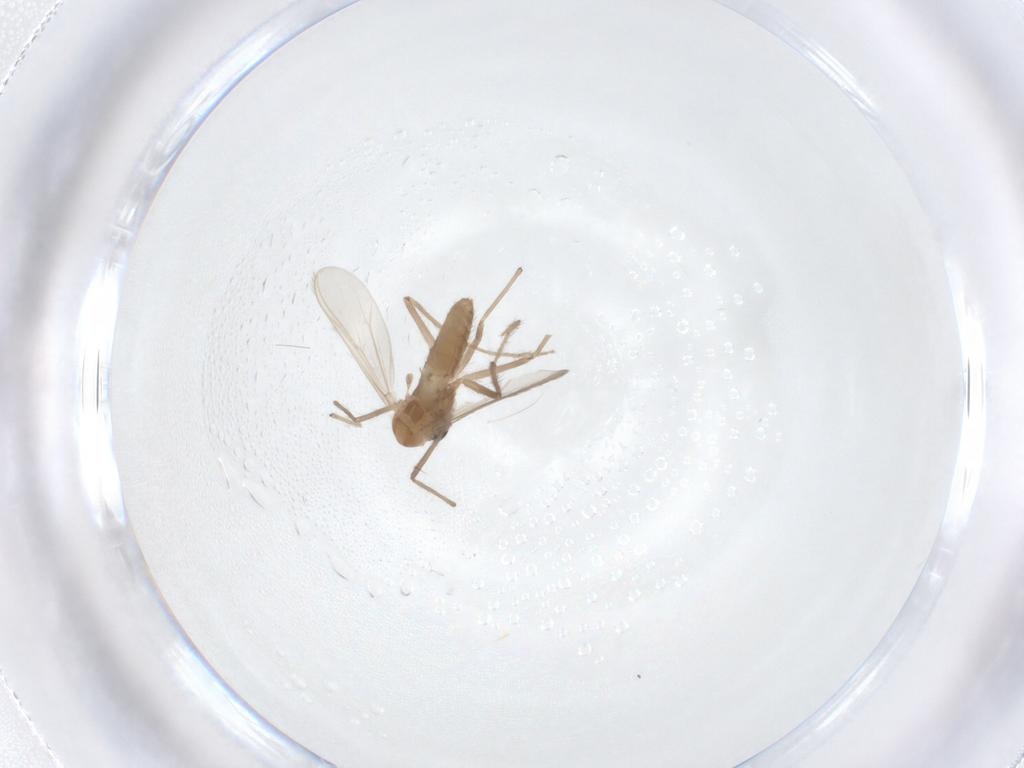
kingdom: Animalia
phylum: Arthropoda
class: Insecta
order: Diptera
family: Chironomidae
